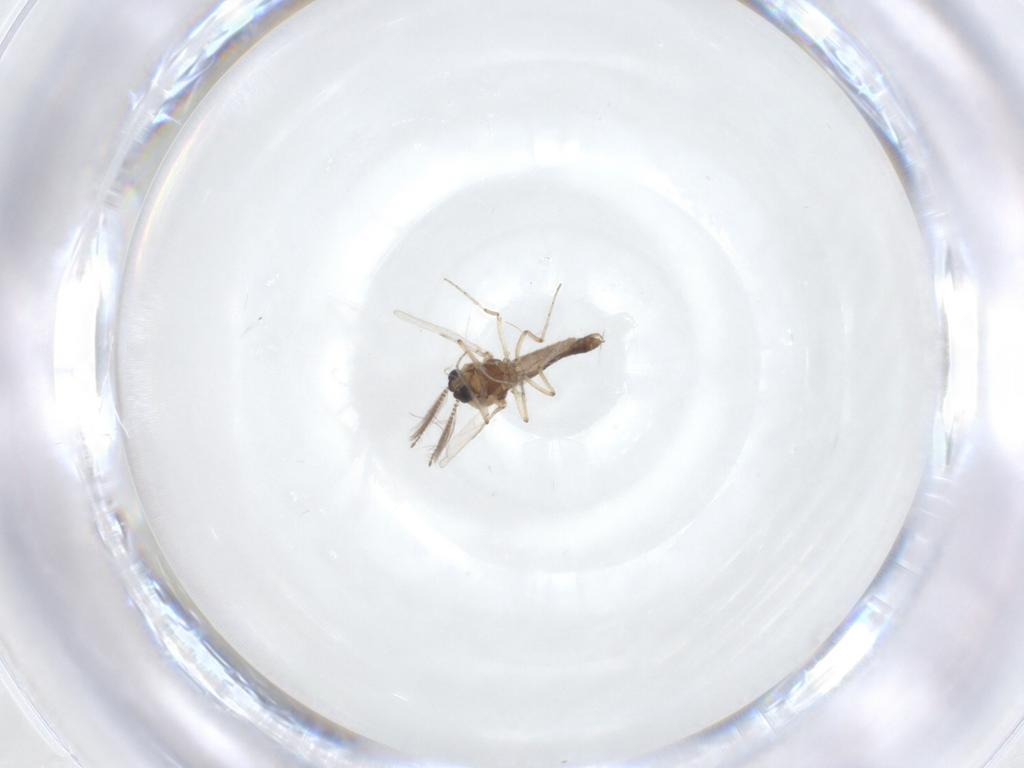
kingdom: Animalia
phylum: Arthropoda
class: Insecta
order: Diptera
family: Ceratopogonidae
